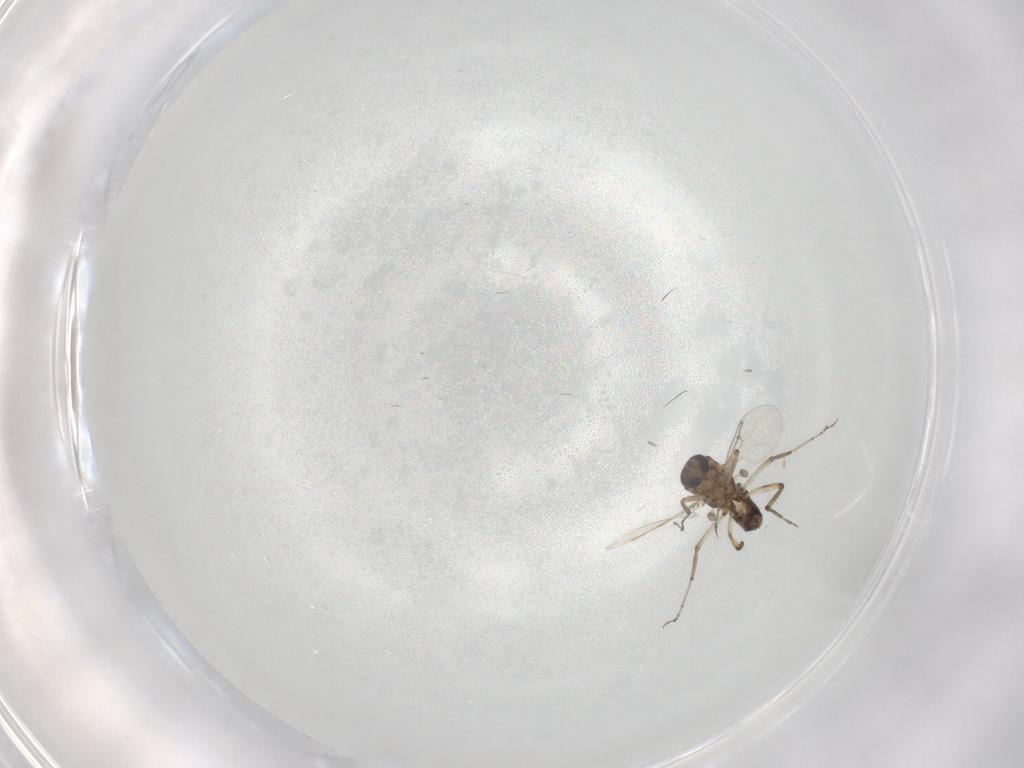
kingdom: Animalia
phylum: Arthropoda
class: Insecta
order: Diptera
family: Ceratopogonidae
